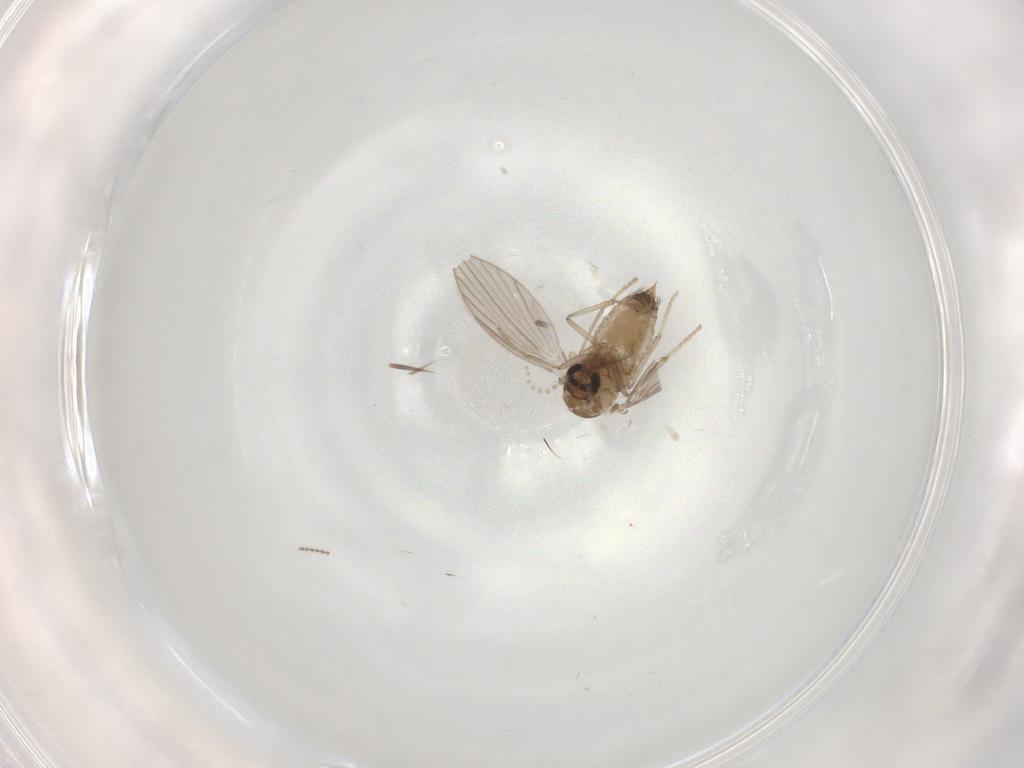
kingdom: Animalia
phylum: Arthropoda
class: Insecta
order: Diptera
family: Psychodidae
